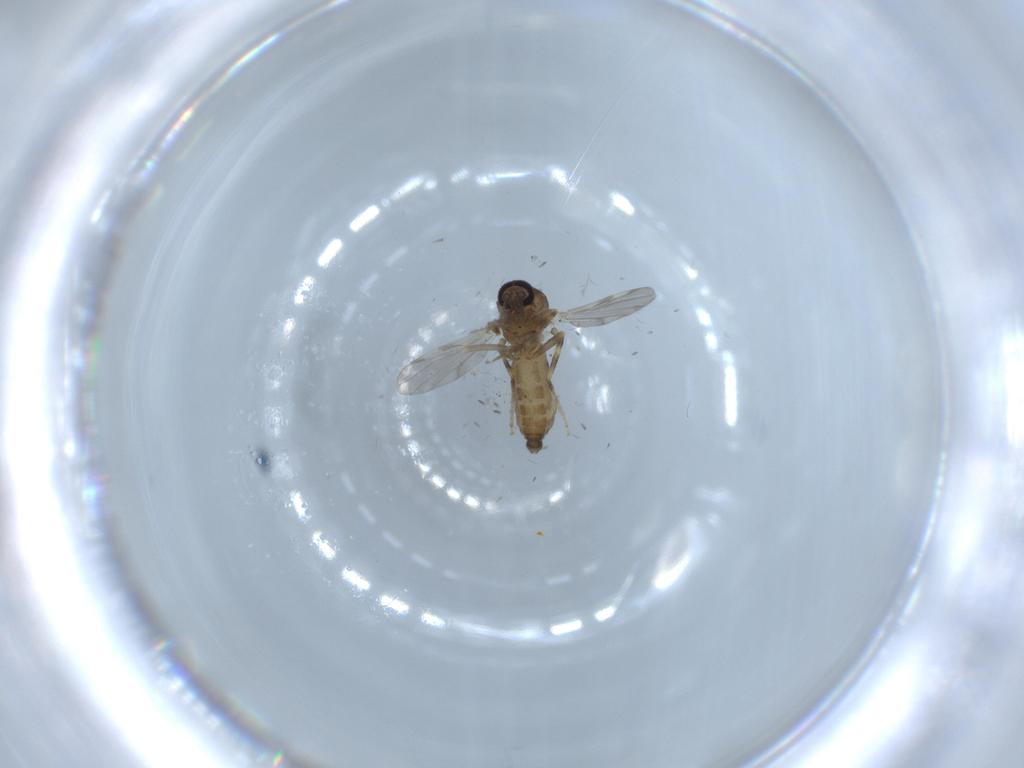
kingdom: Animalia
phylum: Arthropoda
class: Insecta
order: Diptera
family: Ceratopogonidae
